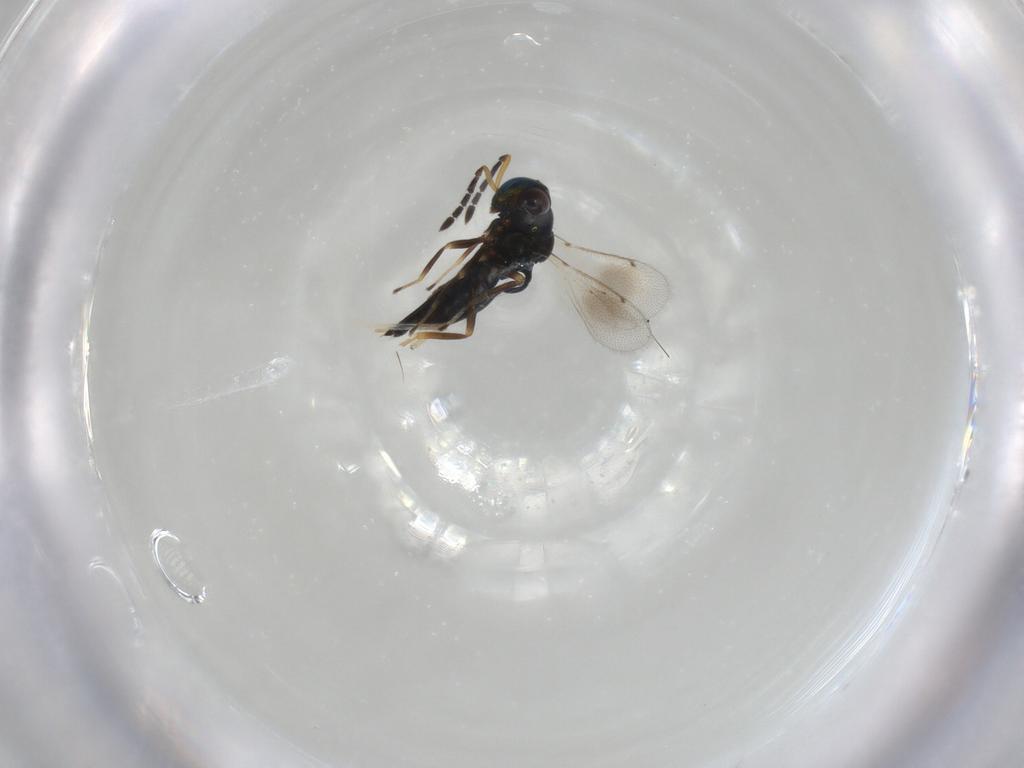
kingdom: Animalia
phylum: Arthropoda
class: Insecta
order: Hymenoptera
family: Eulophidae
